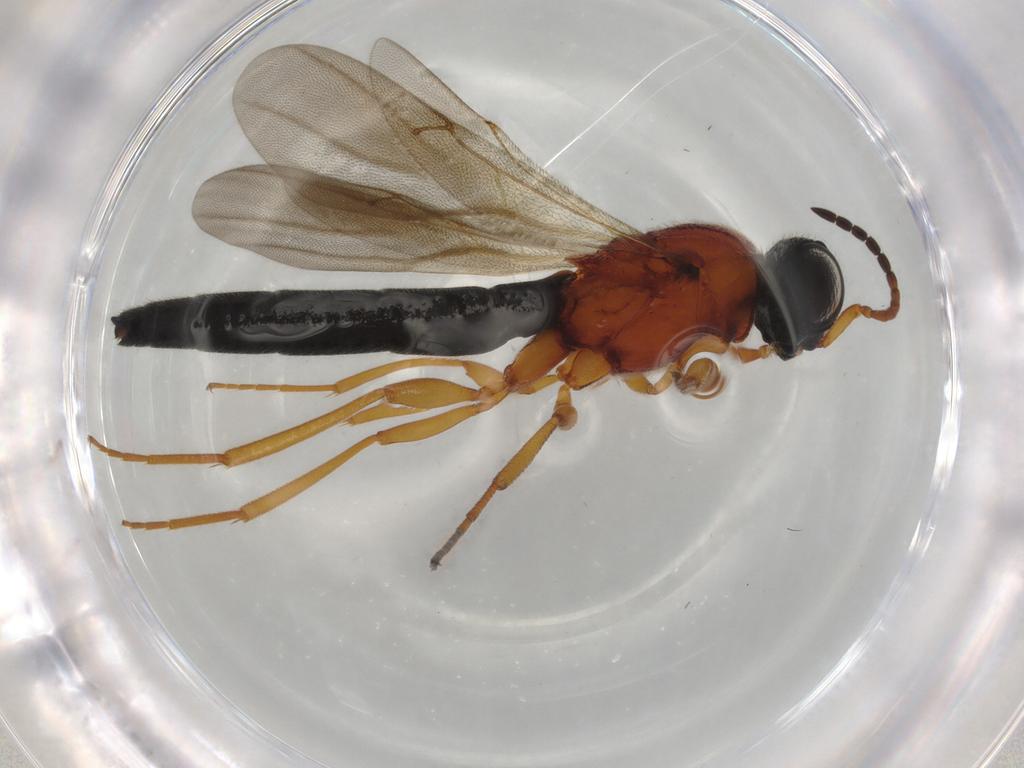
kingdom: Animalia
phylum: Arthropoda
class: Insecta
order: Hymenoptera
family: Scelionidae
